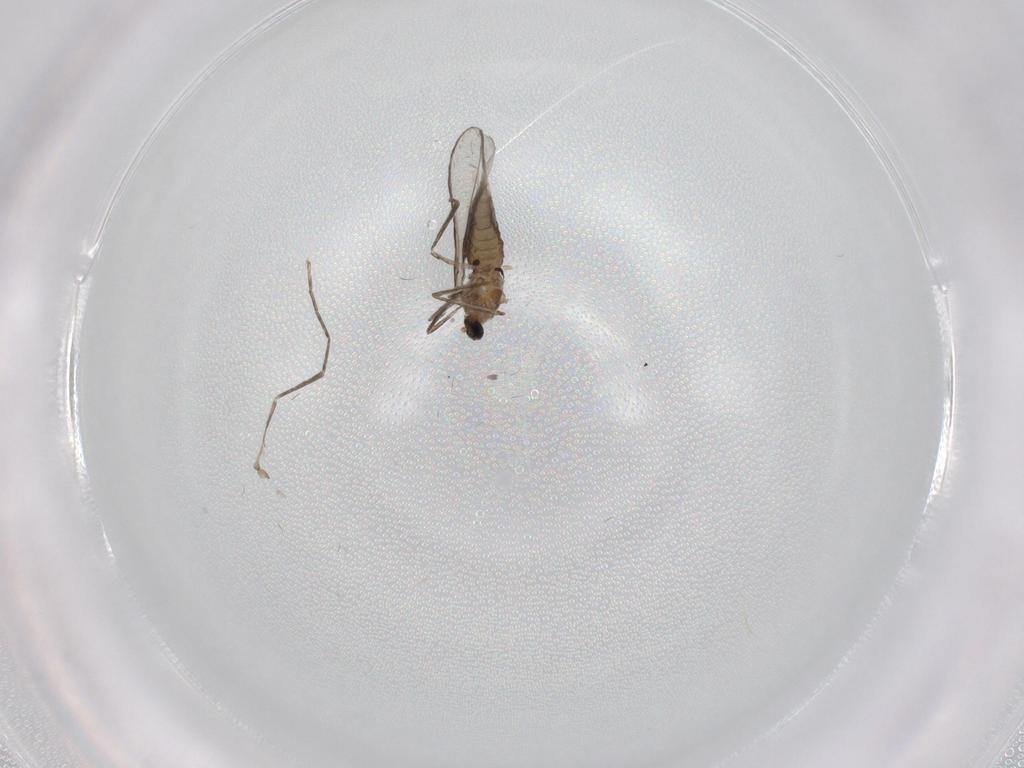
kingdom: Animalia
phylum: Arthropoda
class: Insecta
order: Diptera
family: Cecidomyiidae
